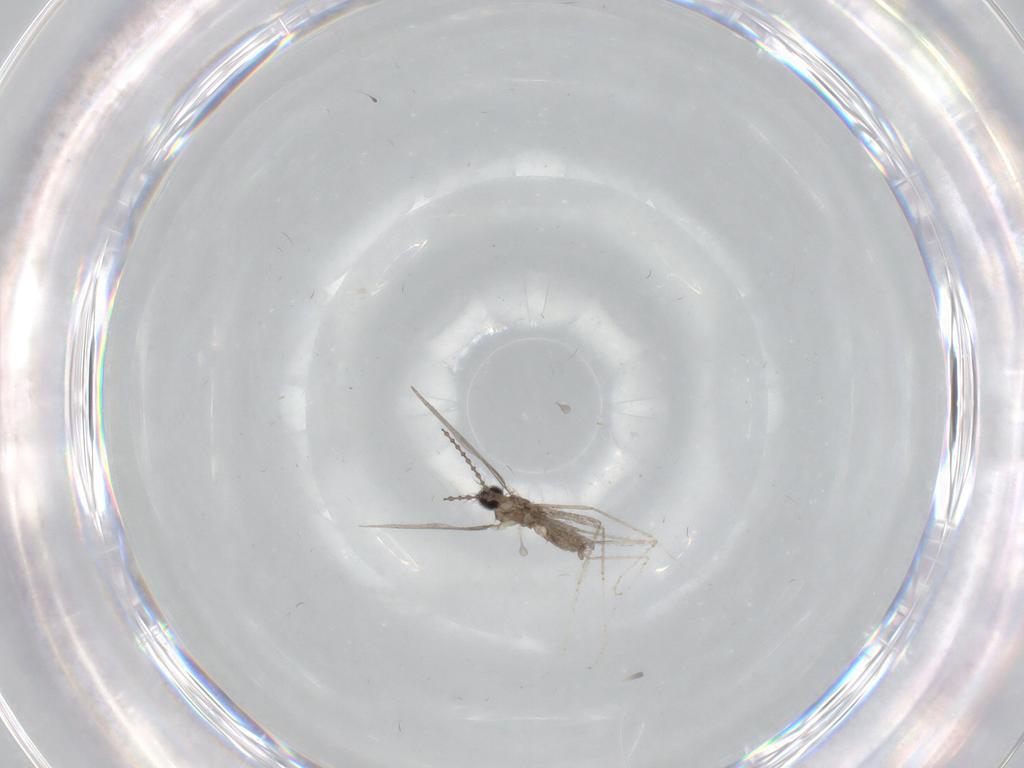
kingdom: Animalia
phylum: Arthropoda
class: Insecta
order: Diptera
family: Cecidomyiidae
